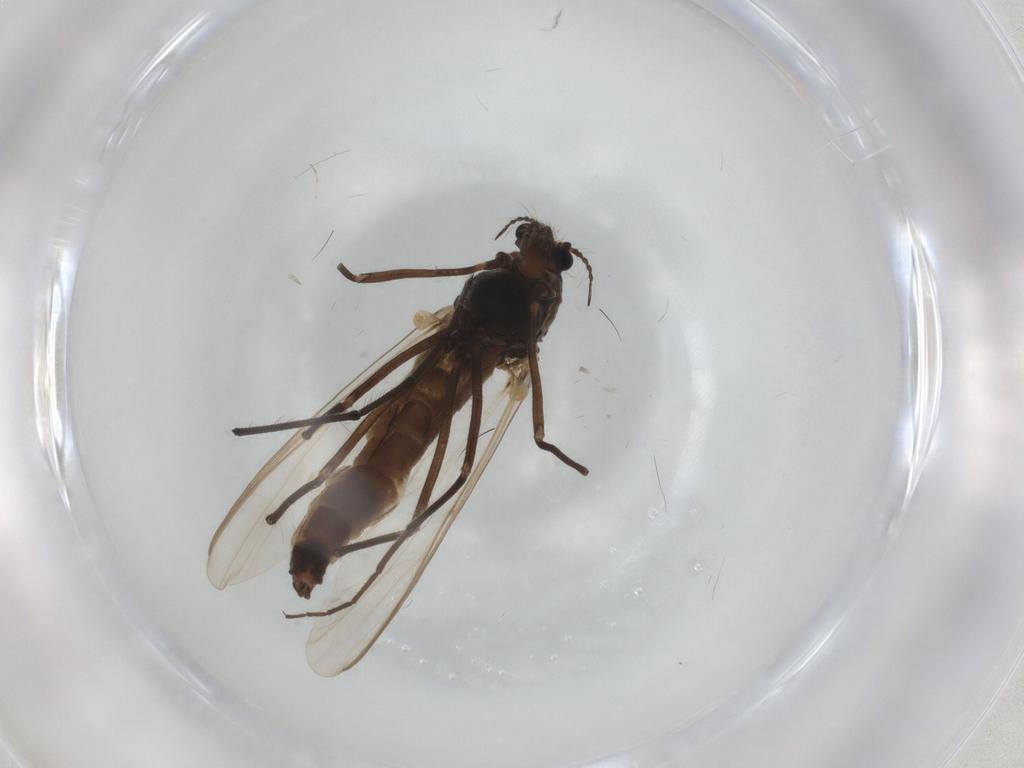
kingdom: Animalia
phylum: Arthropoda
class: Insecta
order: Diptera
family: Chironomidae
